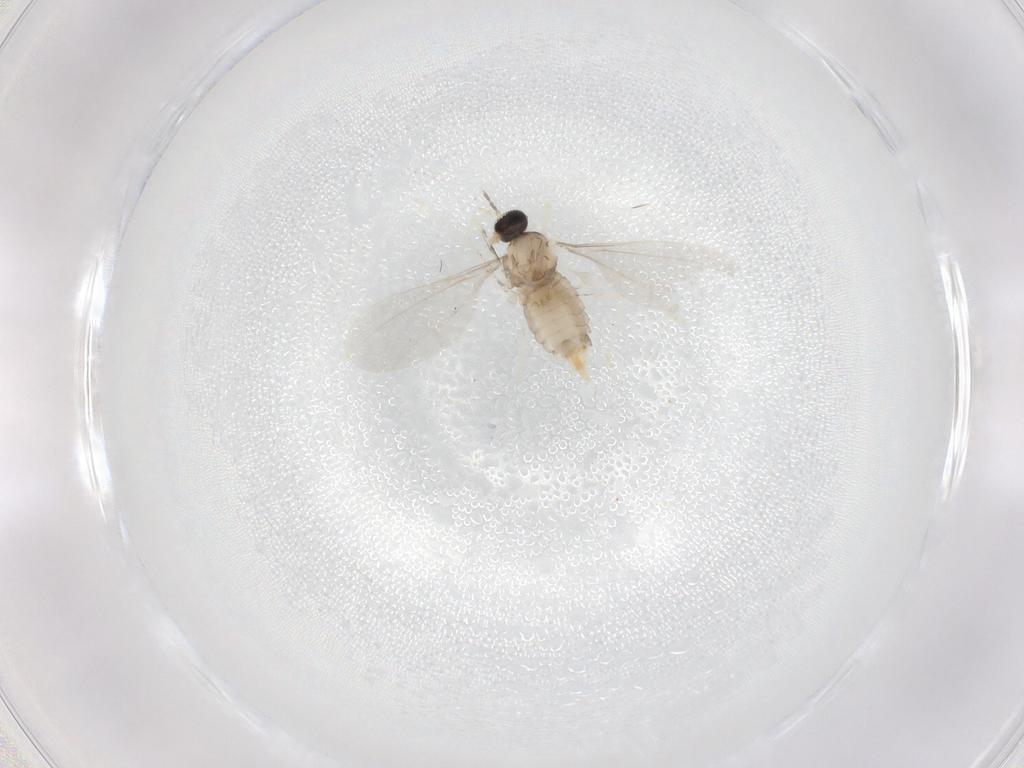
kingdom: Animalia
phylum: Arthropoda
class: Insecta
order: Diptera
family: Cecidomyiidae
